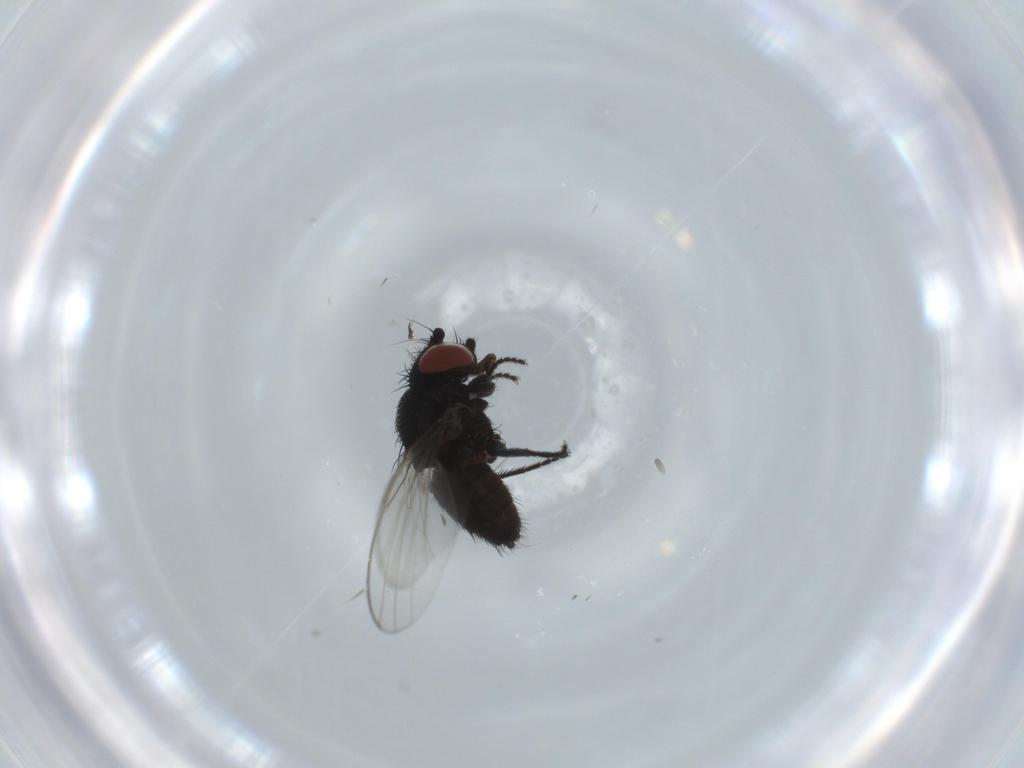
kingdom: Animalia
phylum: Arthropoda
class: Insecta
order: Diptera
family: Milichiidae
